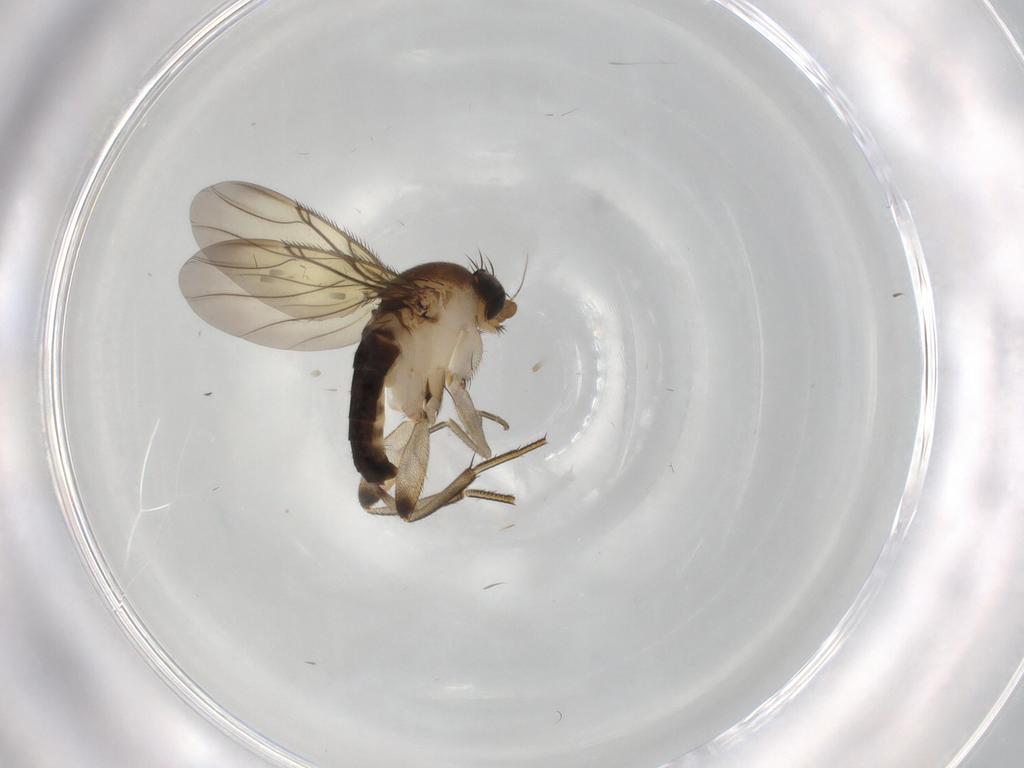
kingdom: Animalia
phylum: Arthropoda
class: Insecta
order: Diptera
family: Phoridae
